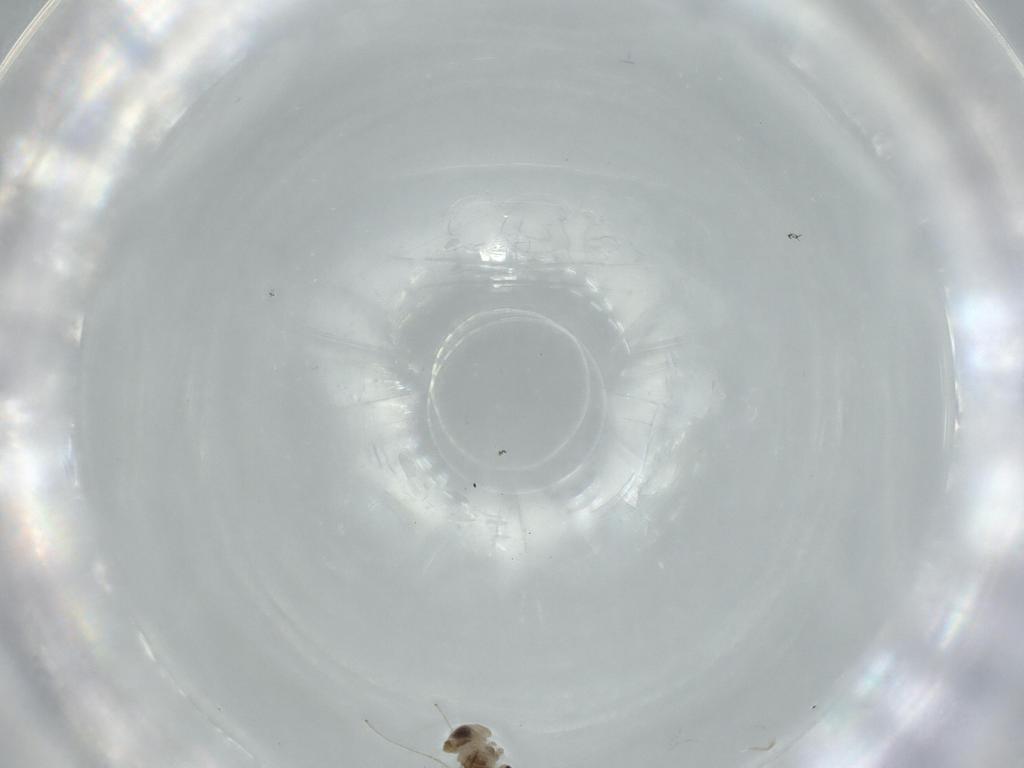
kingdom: Animalia
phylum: Arthropoda
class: Insecta
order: Diptera
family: Cecidomyiidae
